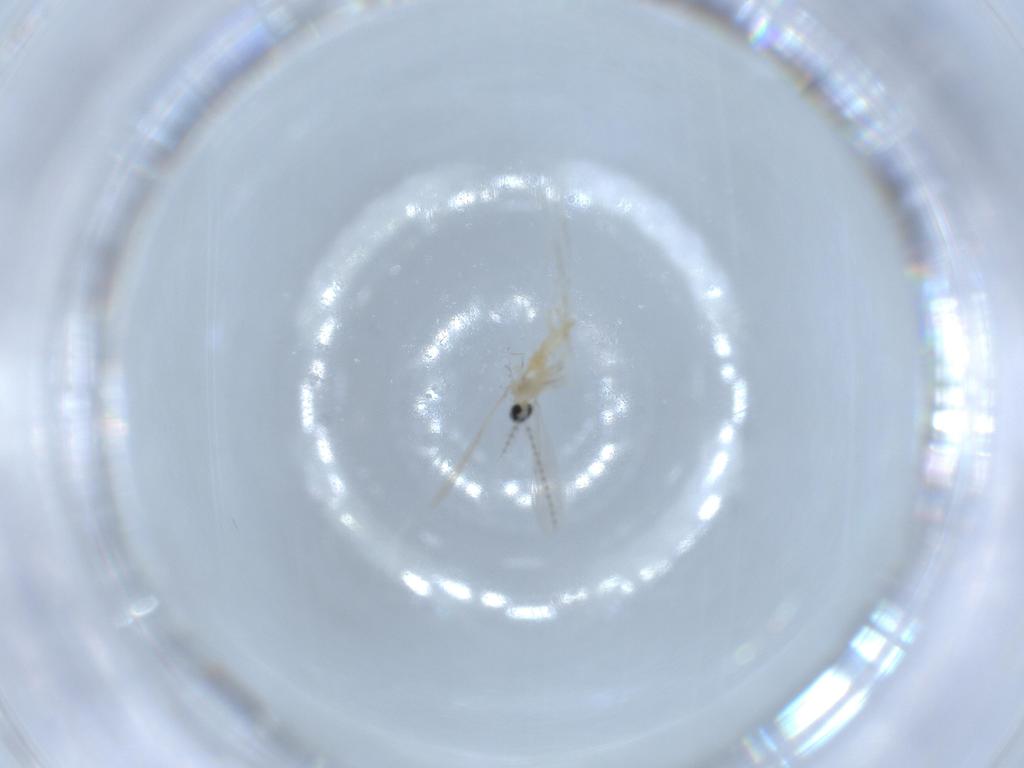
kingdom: Animalia
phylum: Arthropoda
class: Insecta
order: Diptera
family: Cecidomyiidae
